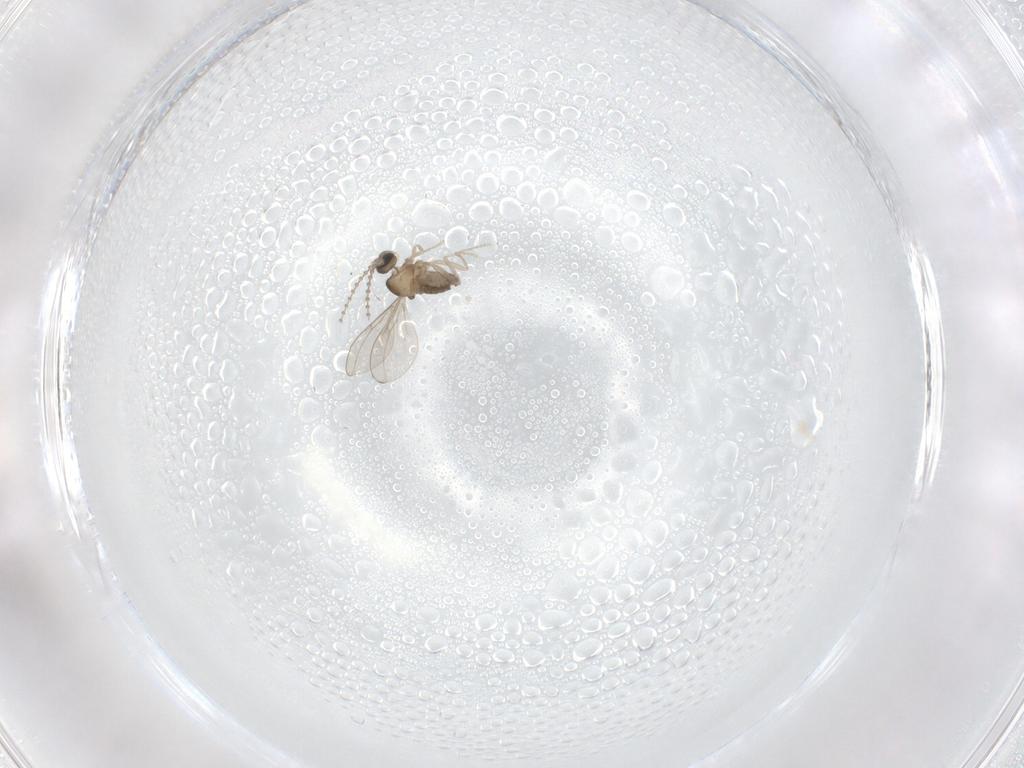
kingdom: Animalia
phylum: Arthropoda
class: Insecta
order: Diptera
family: Cecidomyiidae
